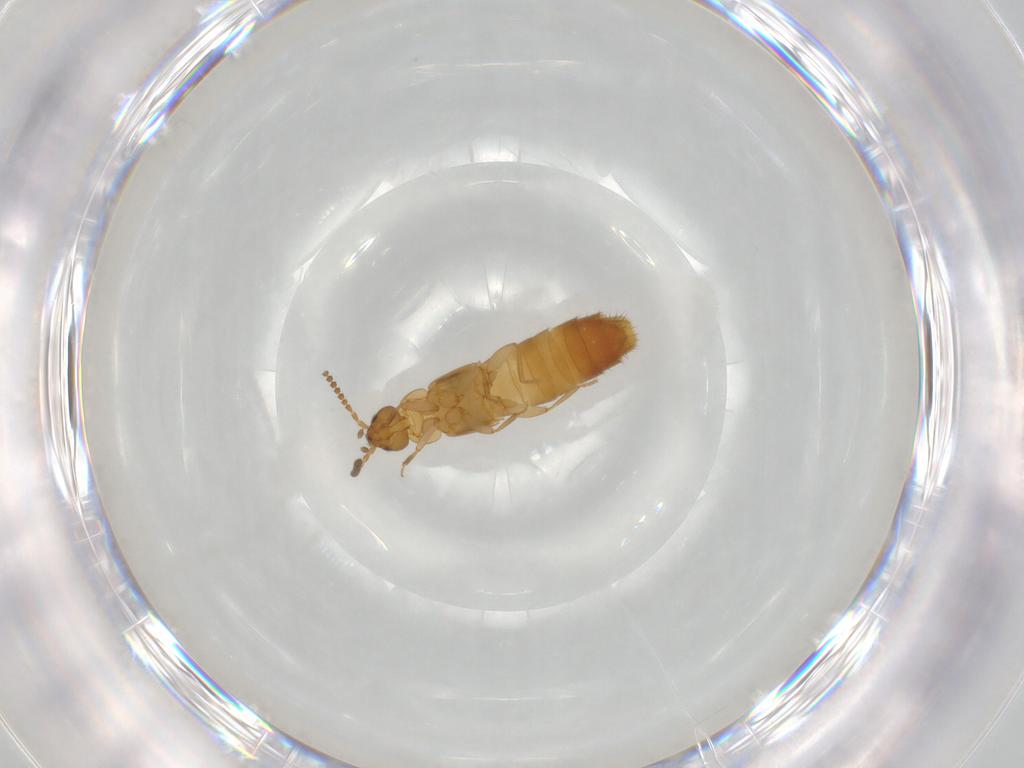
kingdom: Animalia
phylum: Arthropoda
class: Insecta
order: Coleoptera
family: Staphylinidae
